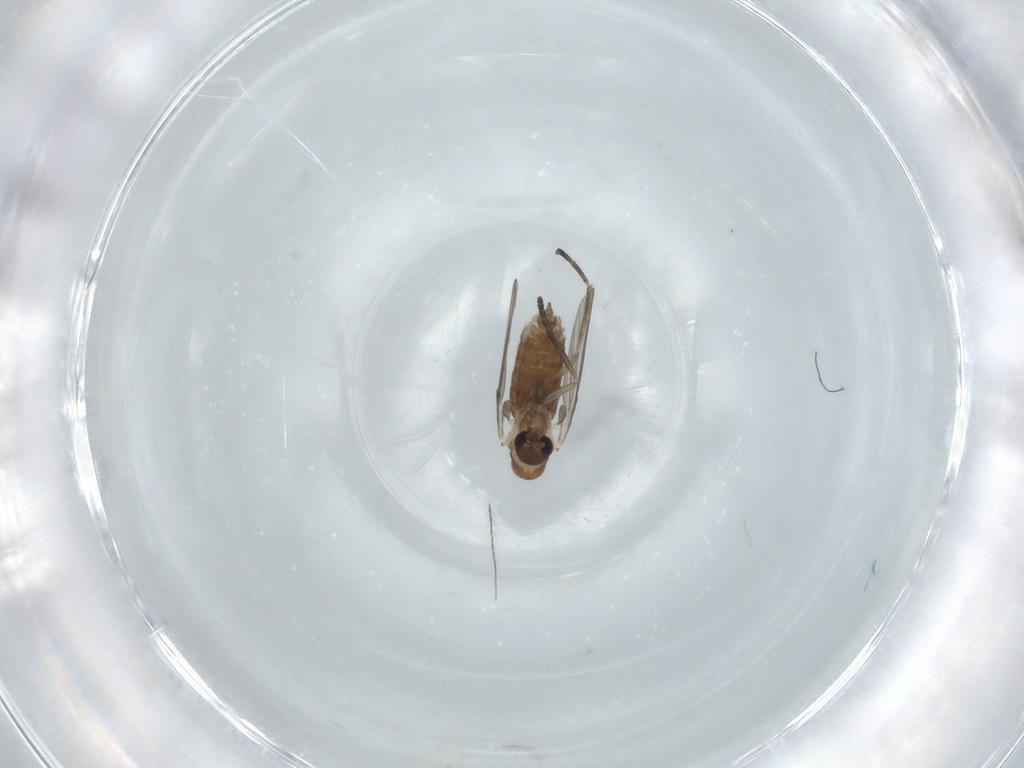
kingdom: Animalia
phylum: Arthropoda
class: Insecta
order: Diptera
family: Psychodidae
